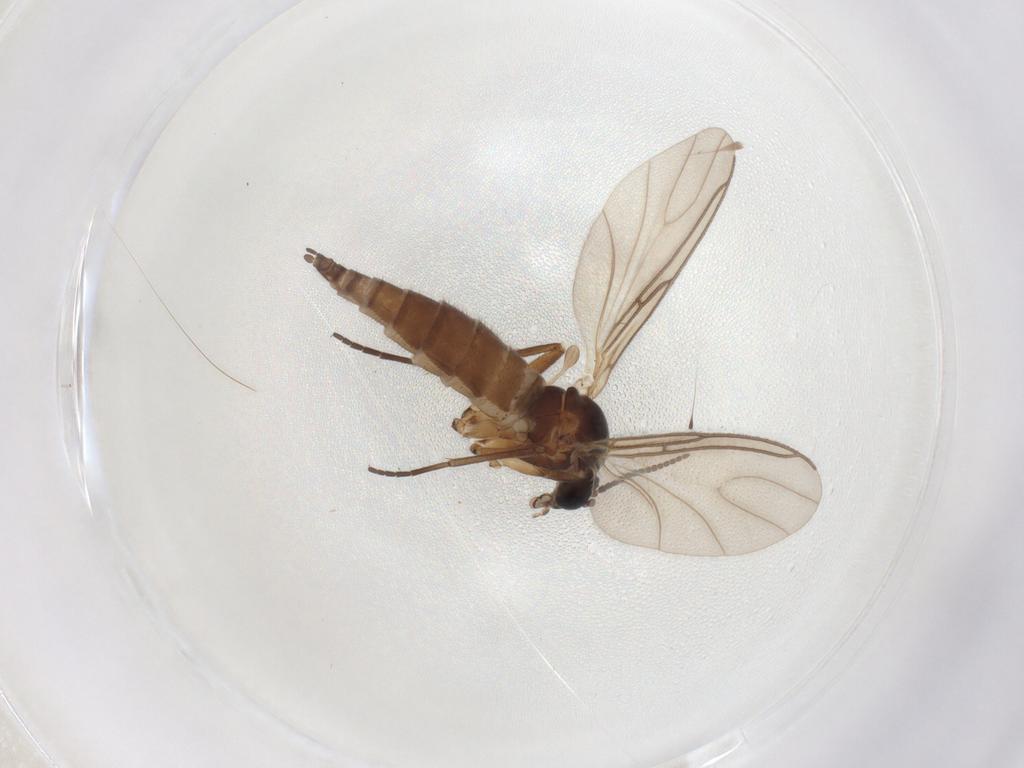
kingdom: Animalia
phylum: Arthropoda
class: Insecta
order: Diptera
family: Sciaridae
